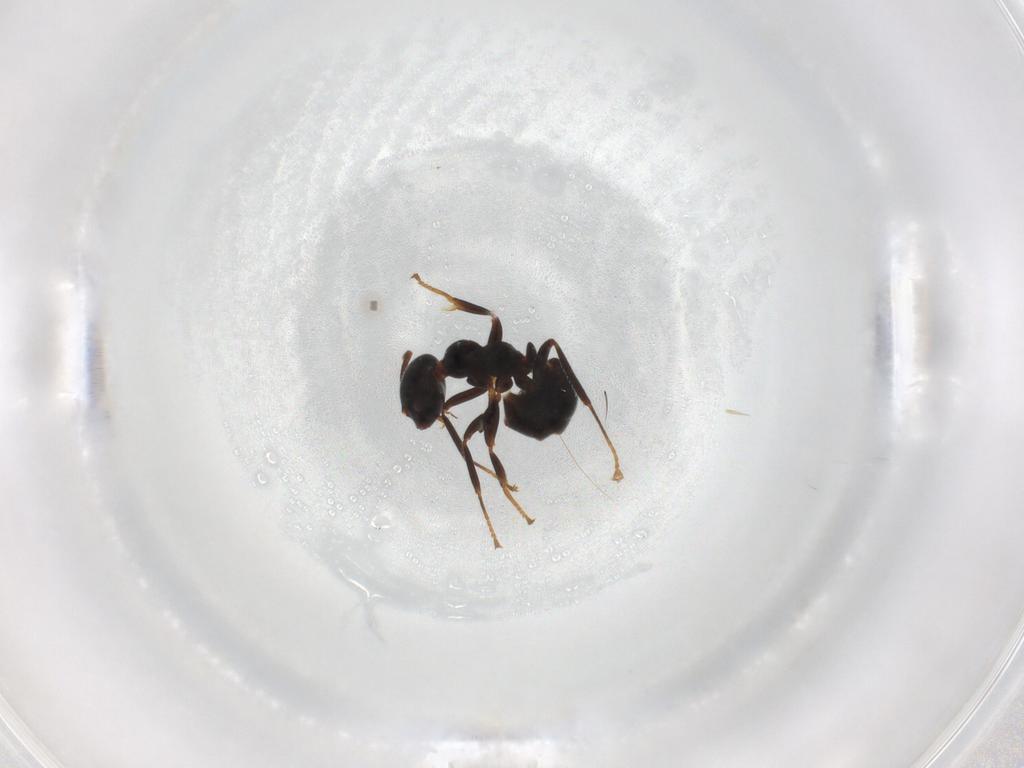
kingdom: Animalia
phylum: Arthropoda
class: Insecta
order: Hymenoptera
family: Formicidae
